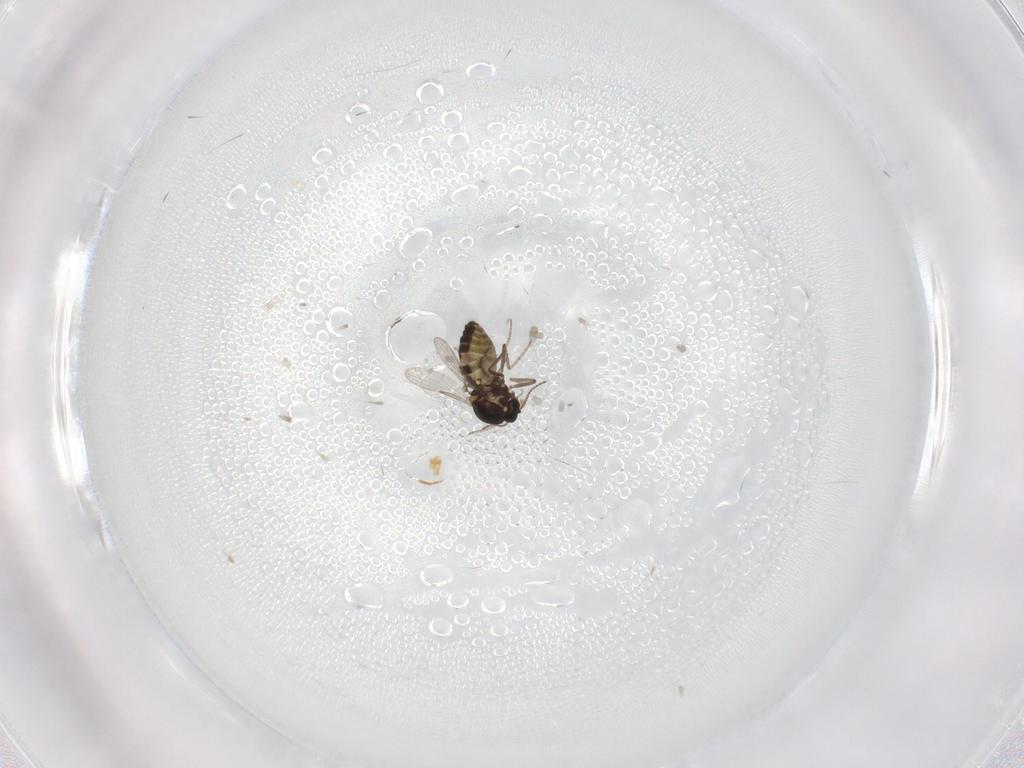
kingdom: Animalia
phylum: Arthropoda
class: Insecta
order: Diptera
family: Ceratopogonidae
